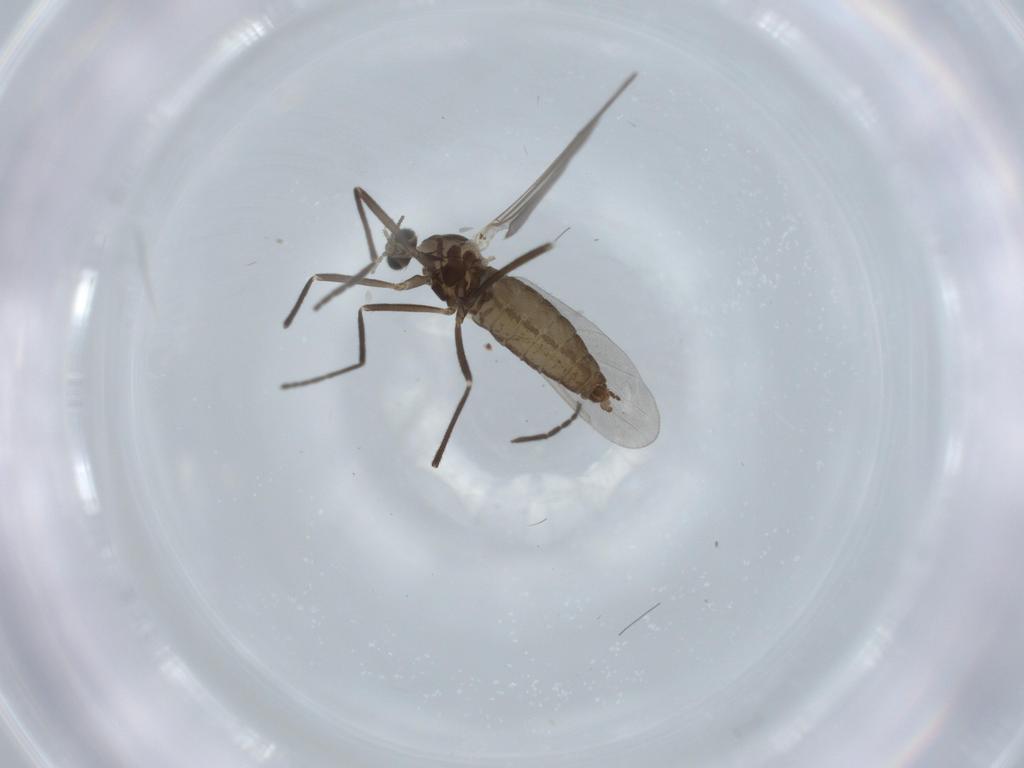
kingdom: Animalia
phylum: Arthropoda
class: Insecta
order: Diptera
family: Cecidomyiidae
